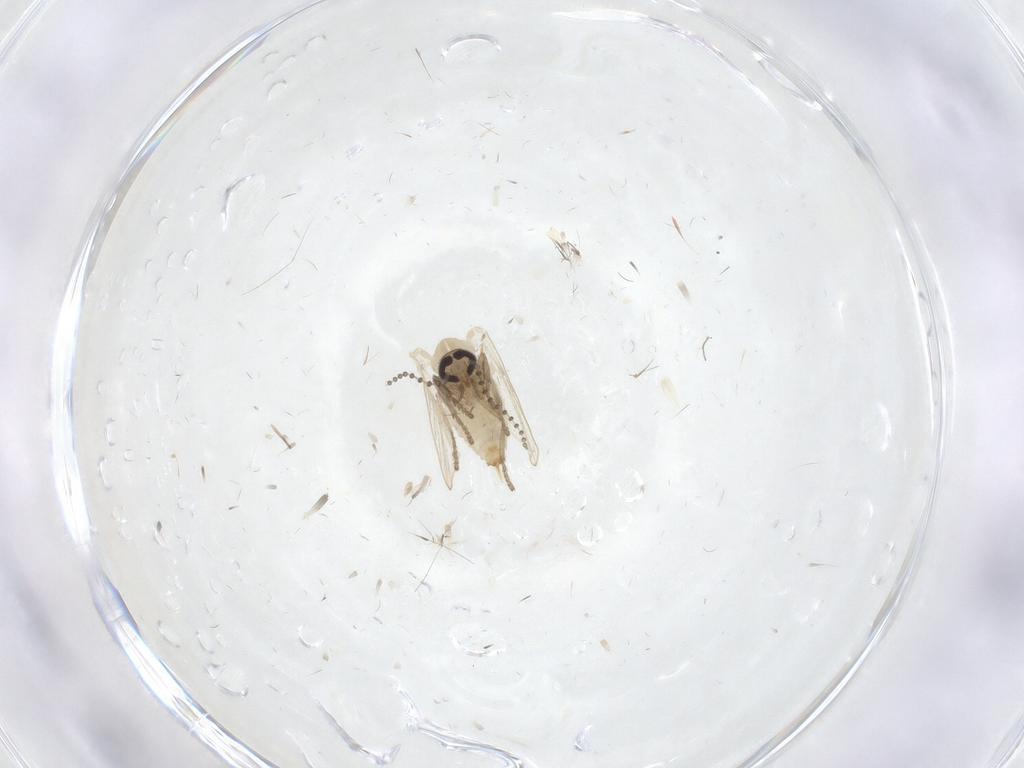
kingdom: Animalia
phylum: Arthropoda
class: Insecta
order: Diptera
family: Psychodidae
